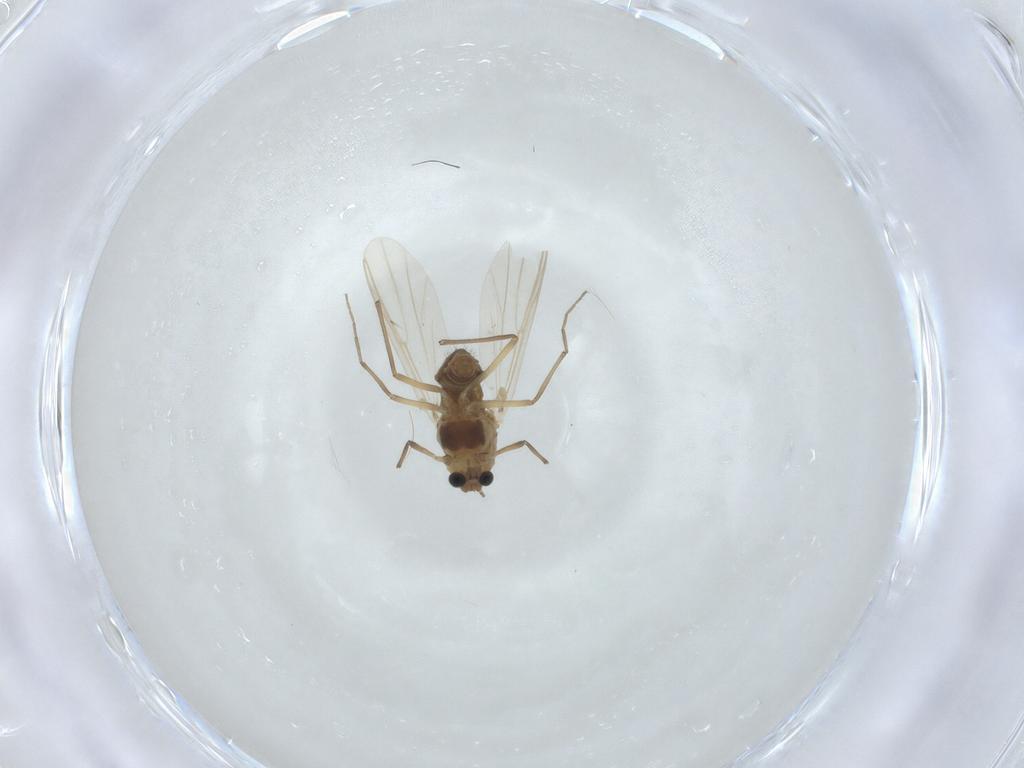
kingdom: Animalia
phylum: Arthropoda
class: Insecta
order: Diptera
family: Chironomidae
